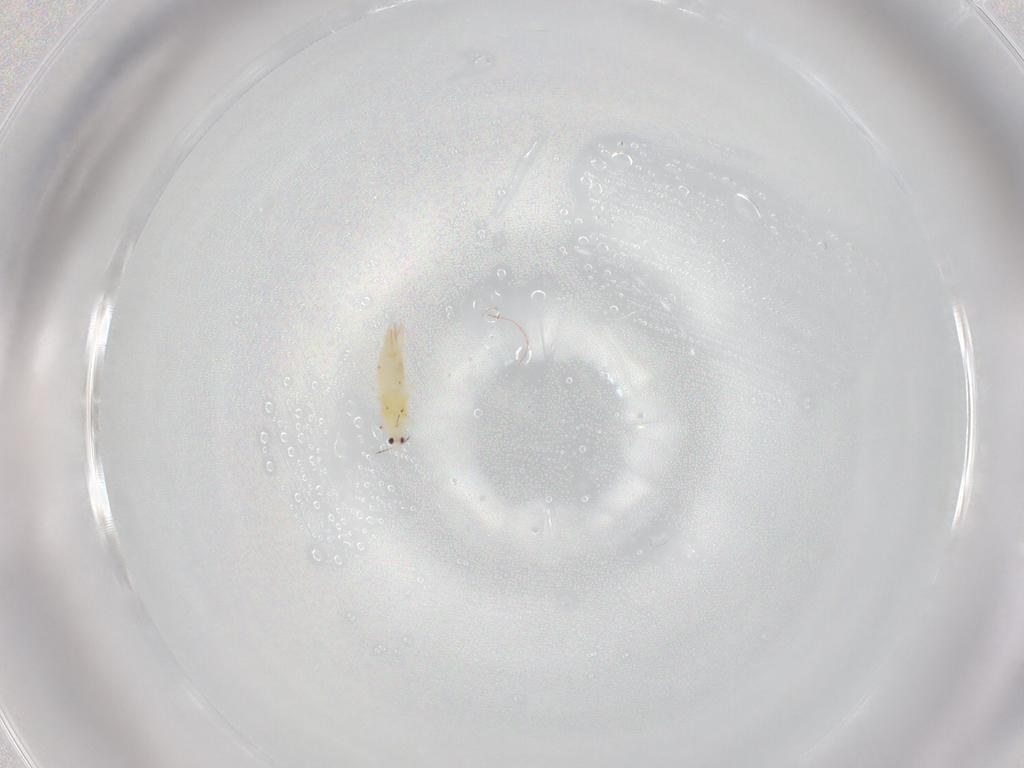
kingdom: Animalia
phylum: Arthropoda
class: Insecta
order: Thysanoptera
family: Thripidae
